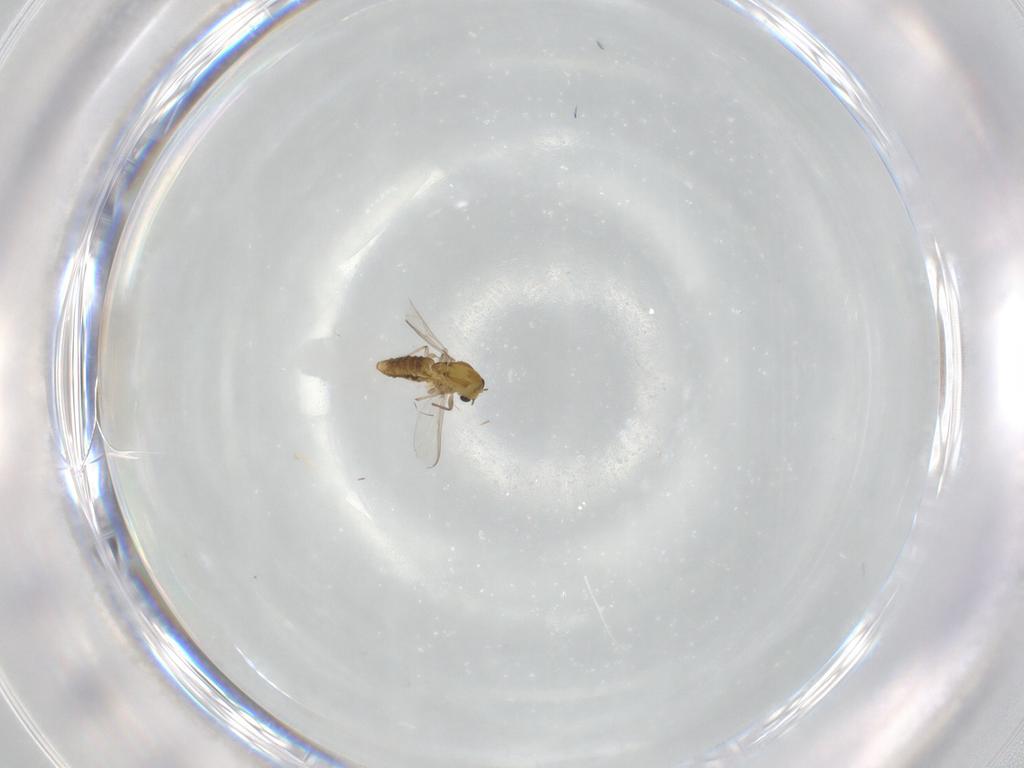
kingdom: Animalia
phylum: Arthropoda
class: Insecta
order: Diptera
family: Chironomidae
